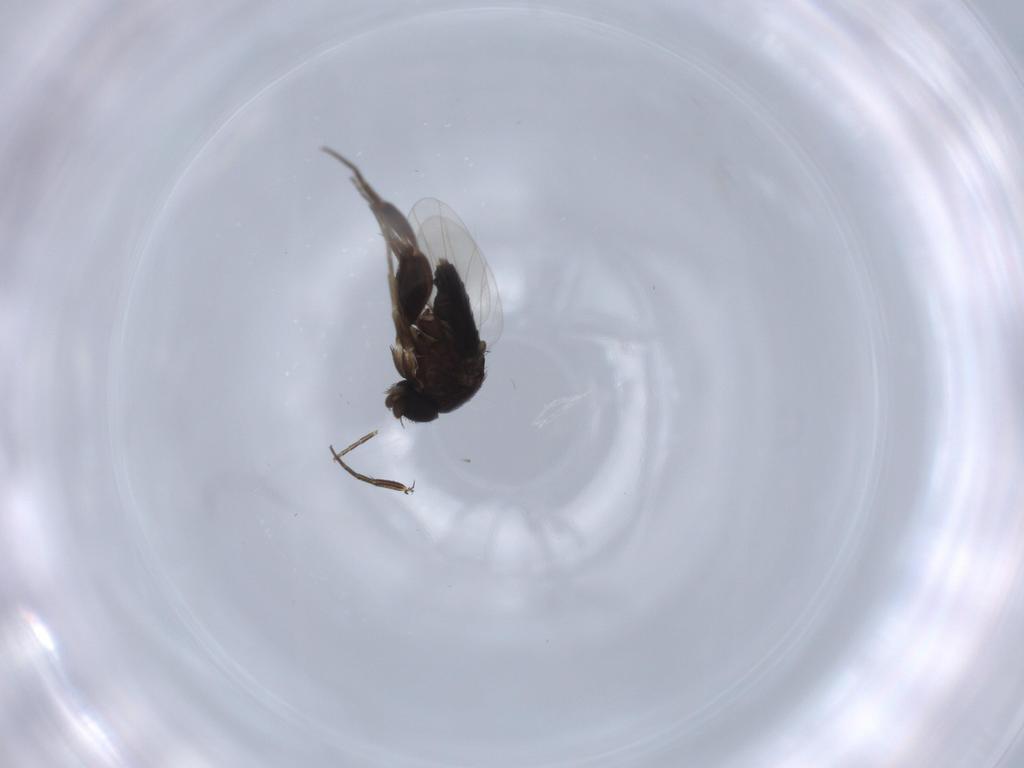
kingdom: Animalia
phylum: Arthropoda
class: Insecta
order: Diptera
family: Phoridae
